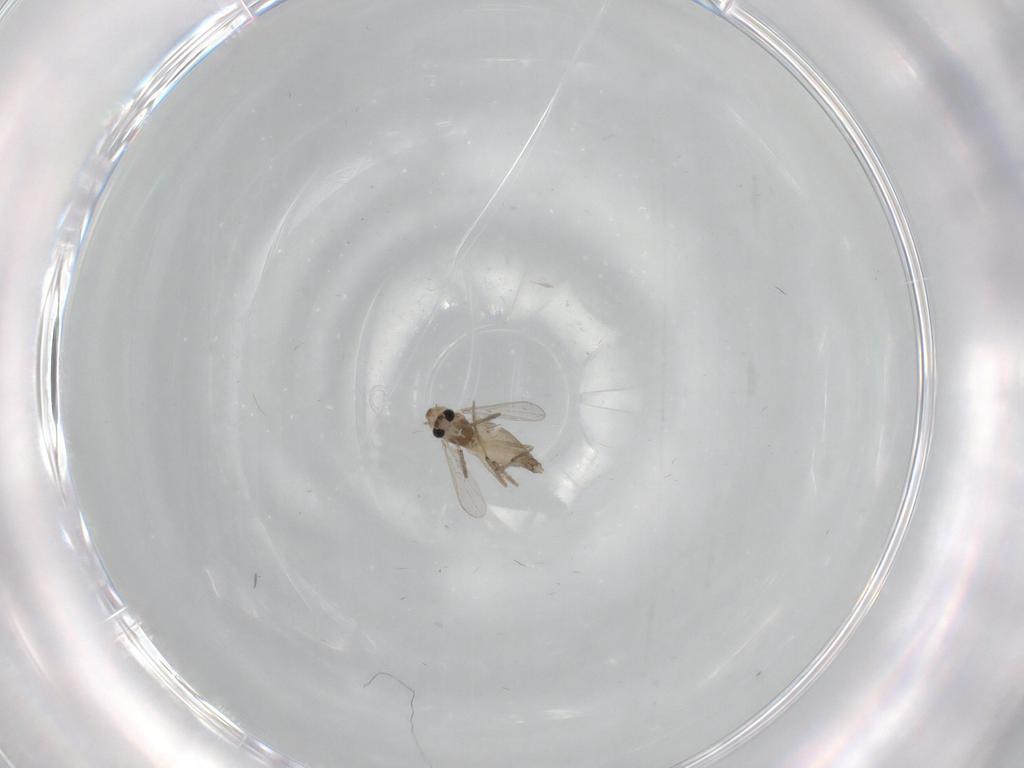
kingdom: Animalia
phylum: Arthropoda
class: Insecta
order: Diptera
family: Chironomidae
